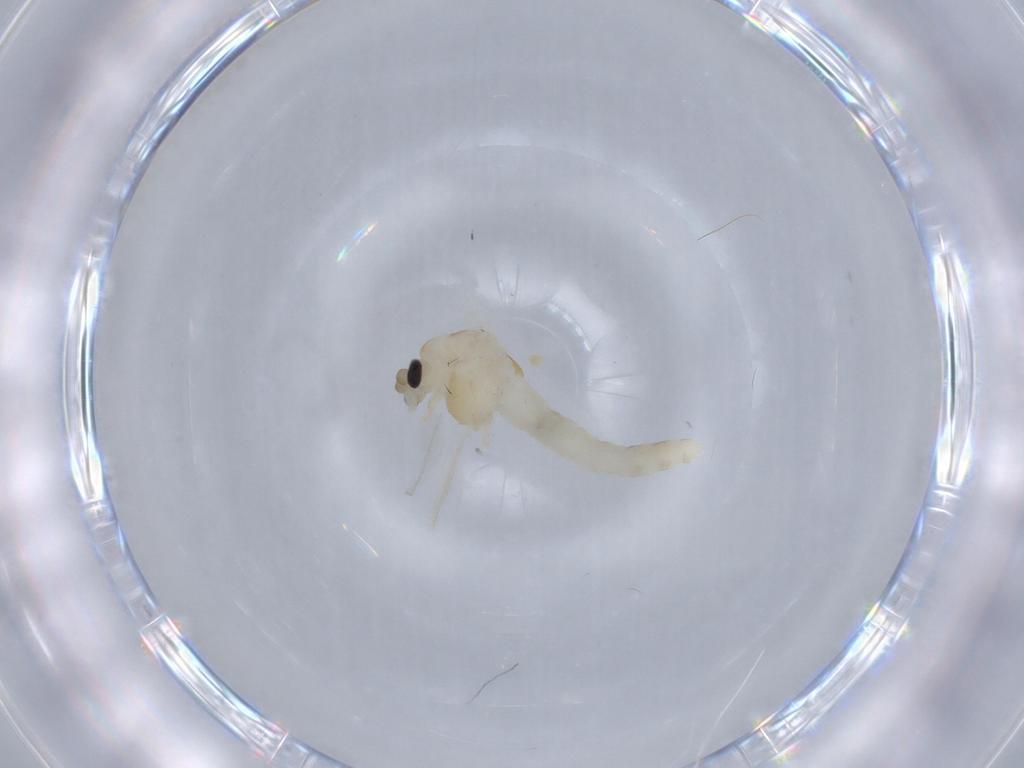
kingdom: Animalia
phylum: Arthropoda
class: Insecta
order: Diptera
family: Chironomidae
